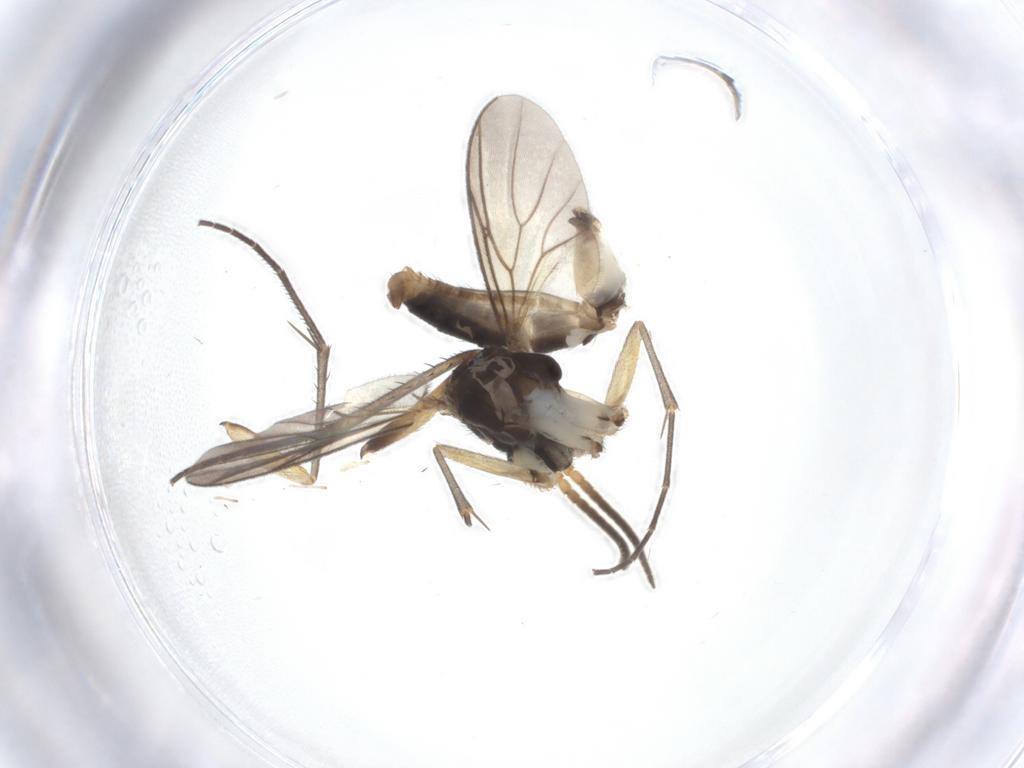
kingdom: Animalia
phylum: Arthropoda
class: Insecta
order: Diptera
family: Mycetophilidae
